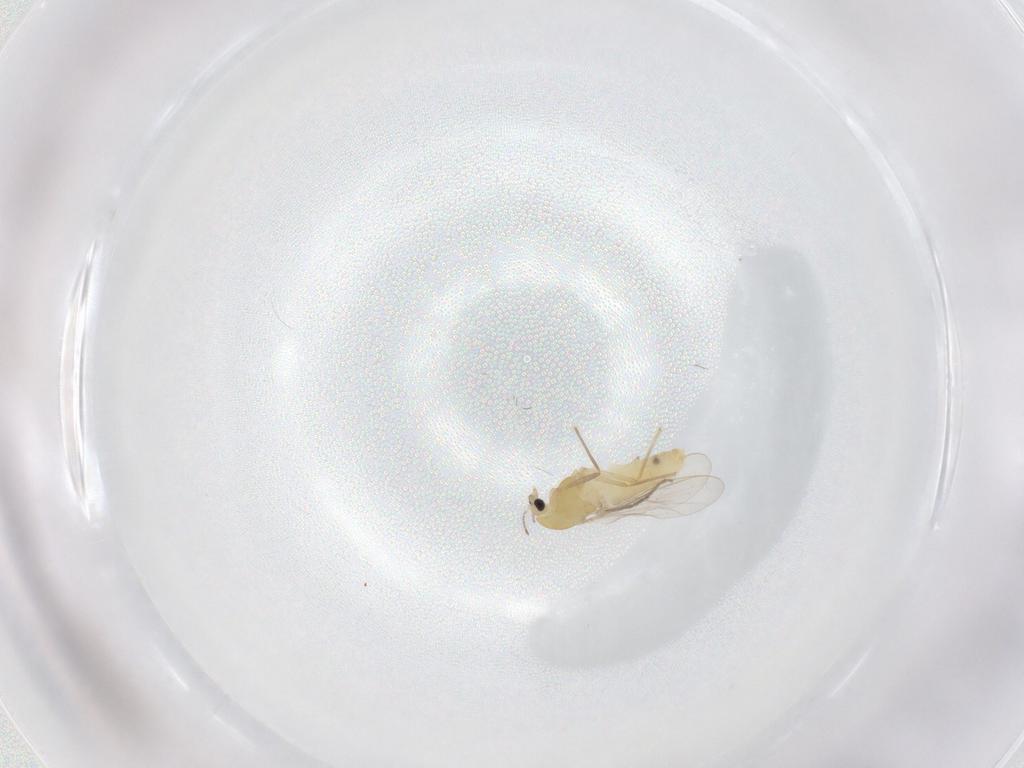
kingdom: Animalia
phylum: Arthropoda
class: Insecta
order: Diptera
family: Chironomidae
